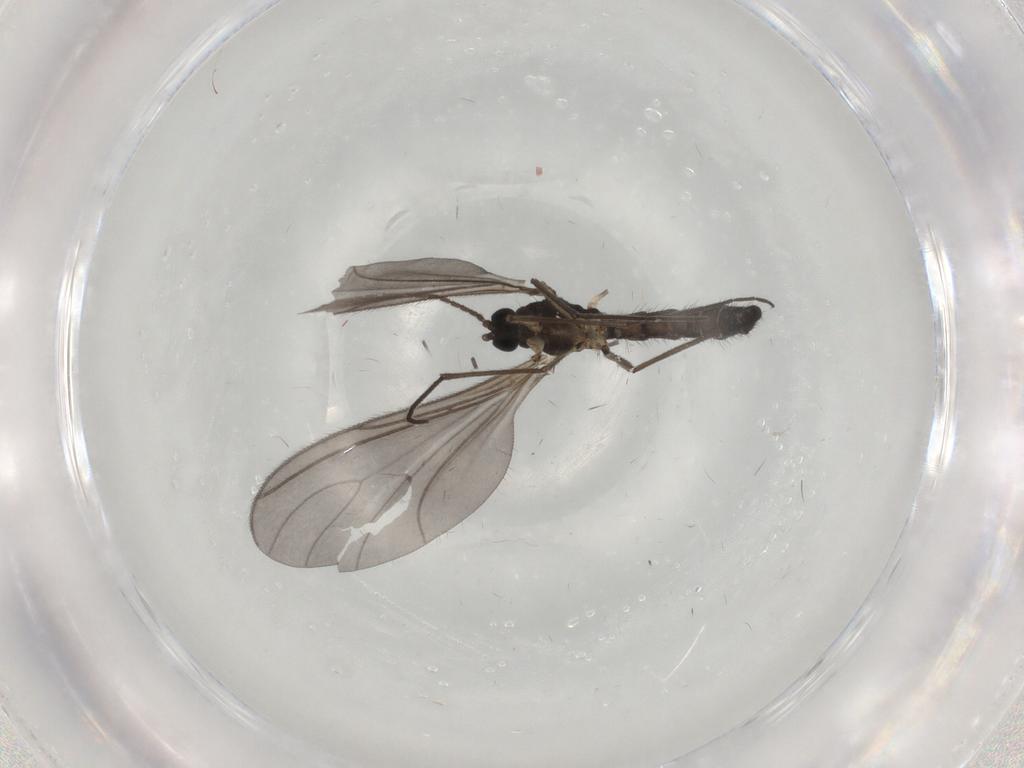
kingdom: Animalia
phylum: Arthropoda
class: Insecta
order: Diptera
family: Sciaridae
